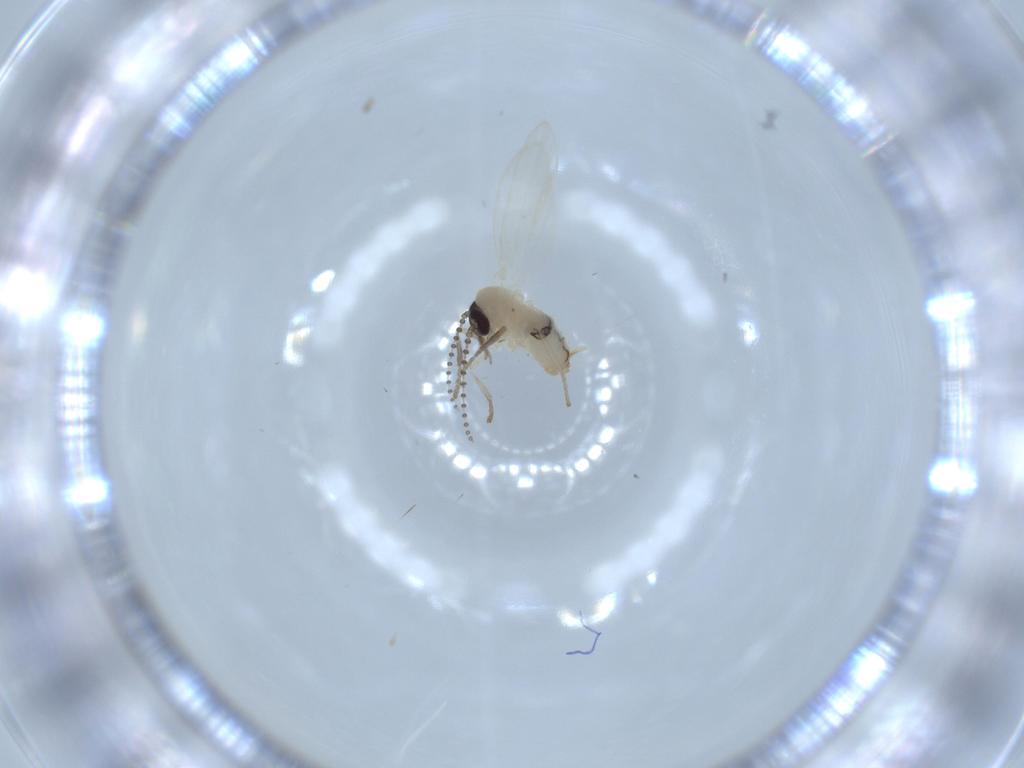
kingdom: Animalia
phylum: Arthropoda
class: Insecta
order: Diptera
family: Psychodidae
